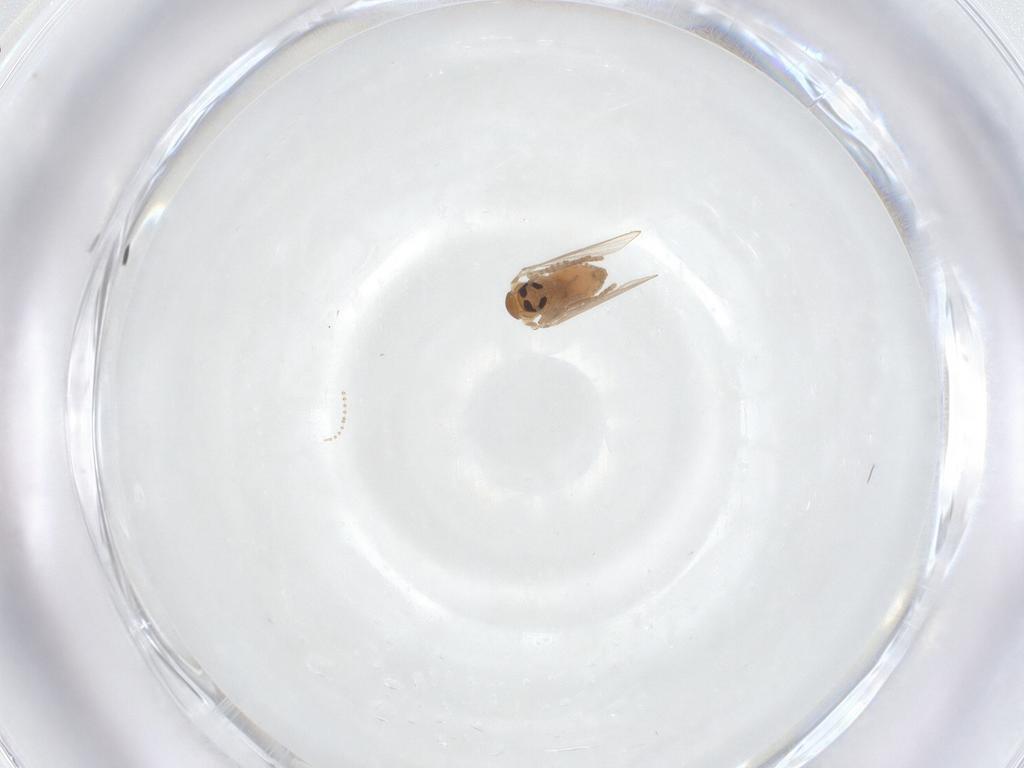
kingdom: Animalia
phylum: Arthropoda
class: Insecta
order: Diptera
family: Psychodidae
